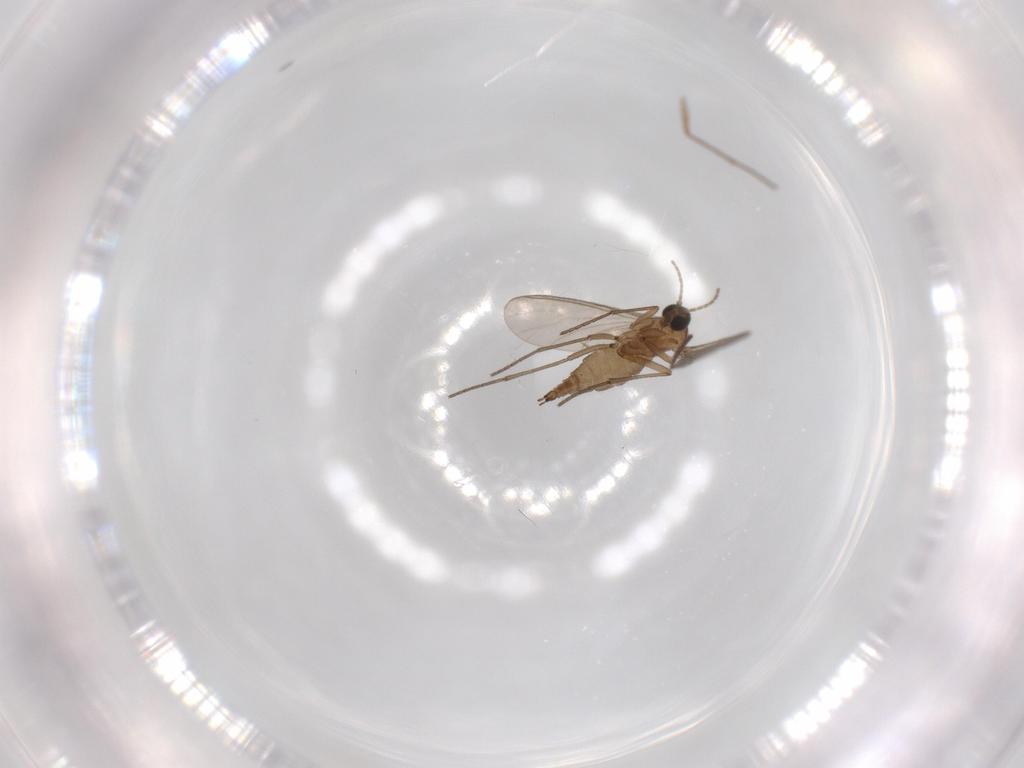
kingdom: Animalia
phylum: Arthropoda
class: Insecta
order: Diptera
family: Sciaridae
